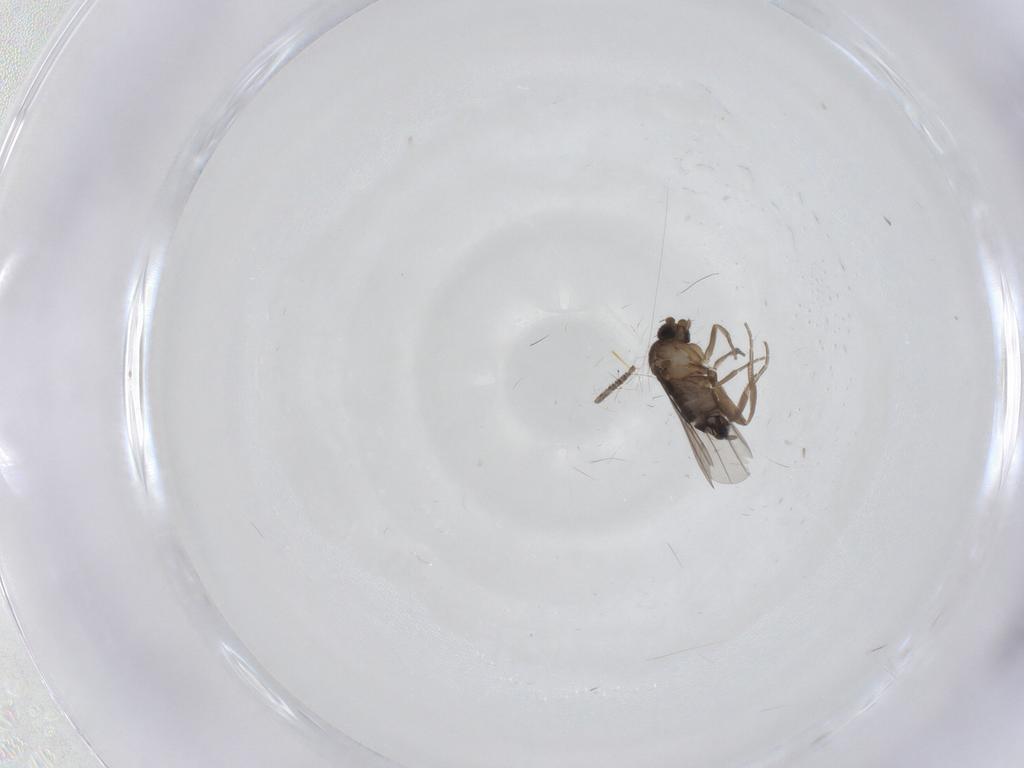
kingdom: Animalia
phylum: Arthropoda
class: Insecta
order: Diptera
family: Phoridae
